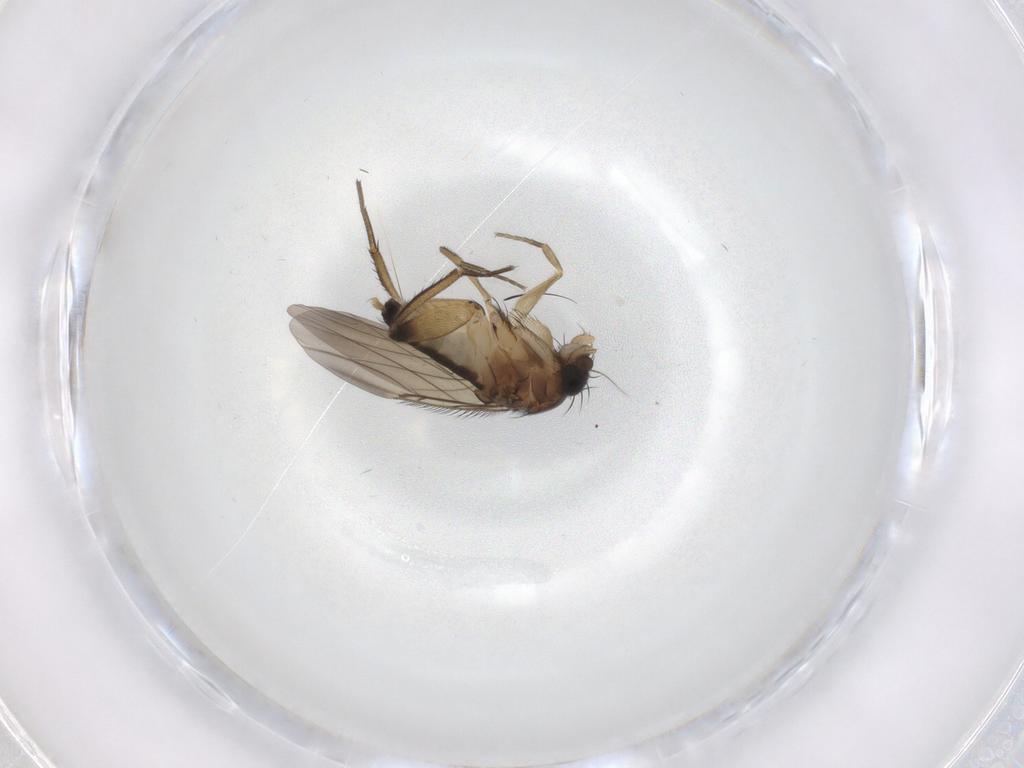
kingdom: Animalia
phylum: Arthropoda
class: Insecta
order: Diptera
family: Phoridae
